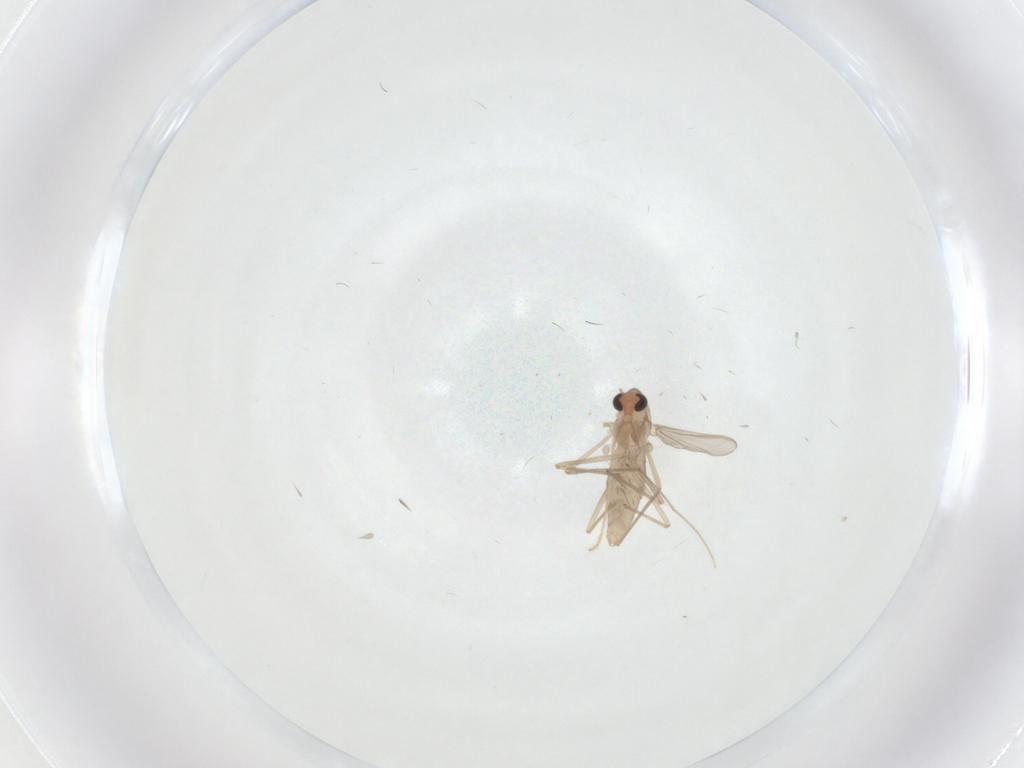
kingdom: Animalia
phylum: Arthropoda
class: Insecta
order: Diptera
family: Chironomidae
